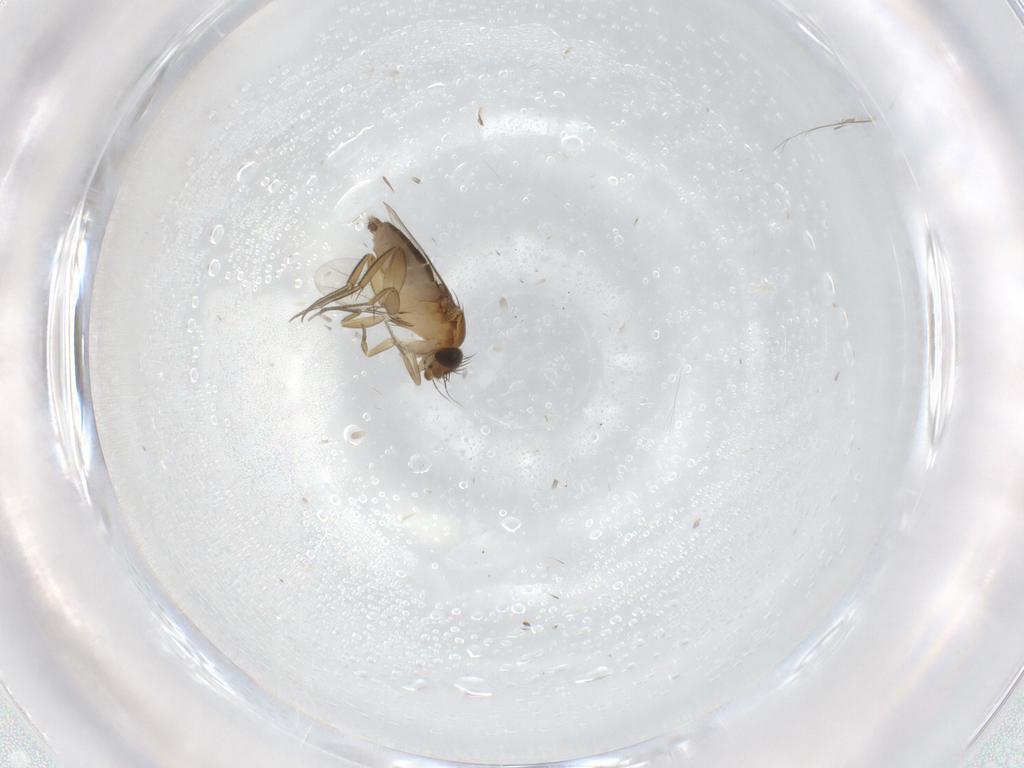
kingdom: Animalia
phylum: Arthropoda
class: Insecta
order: Diptera
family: Phoridae
